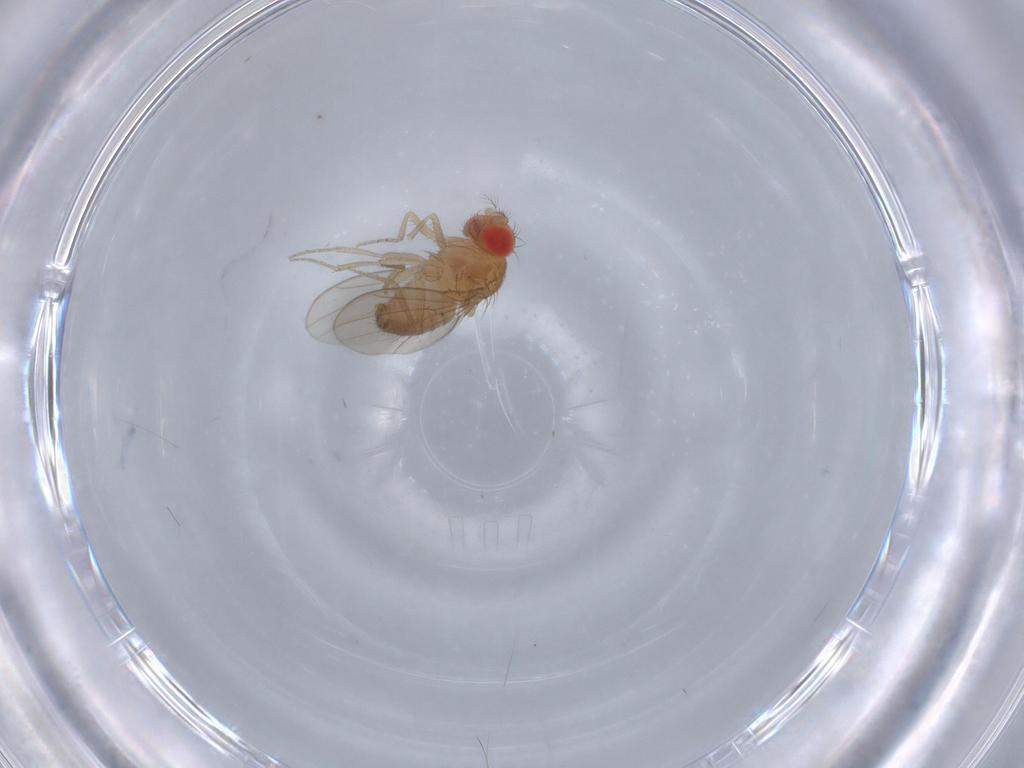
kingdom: Animalia
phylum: Arthropoda
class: Insecta
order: Diptera
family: Drosophilidae
